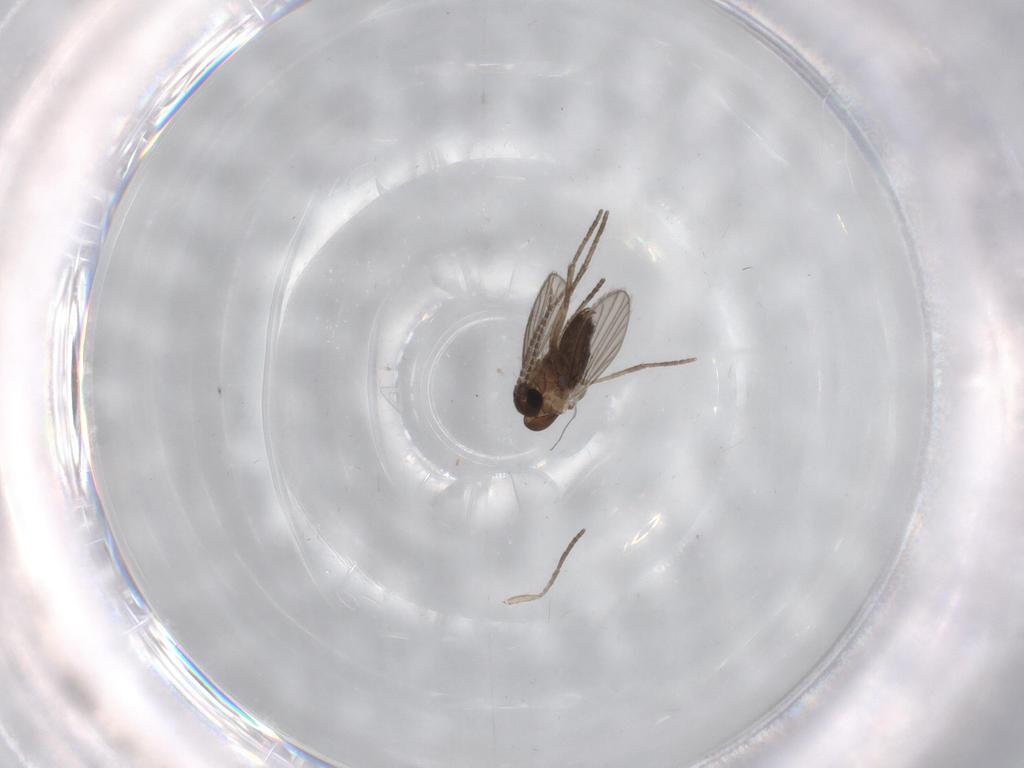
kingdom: Animalia
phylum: Arthropoda
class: Insecta
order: Diptera
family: Psychodidae
